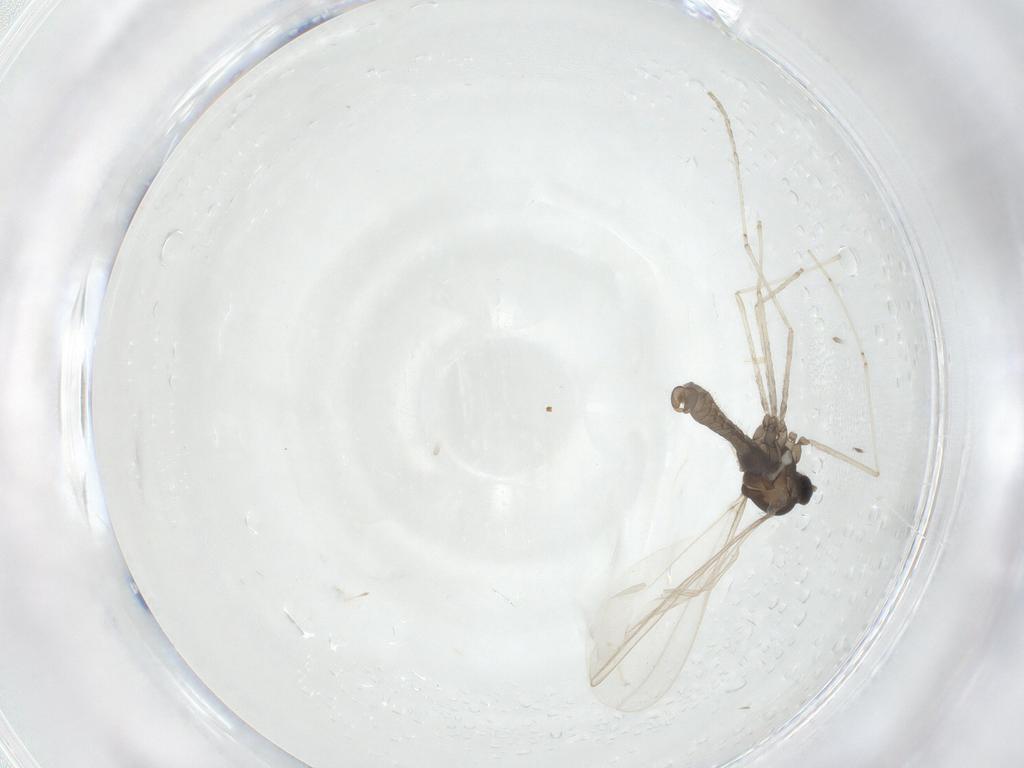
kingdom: Animalia
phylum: Arthropoda
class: Insecta
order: Diptera
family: Cecidomyiidae
